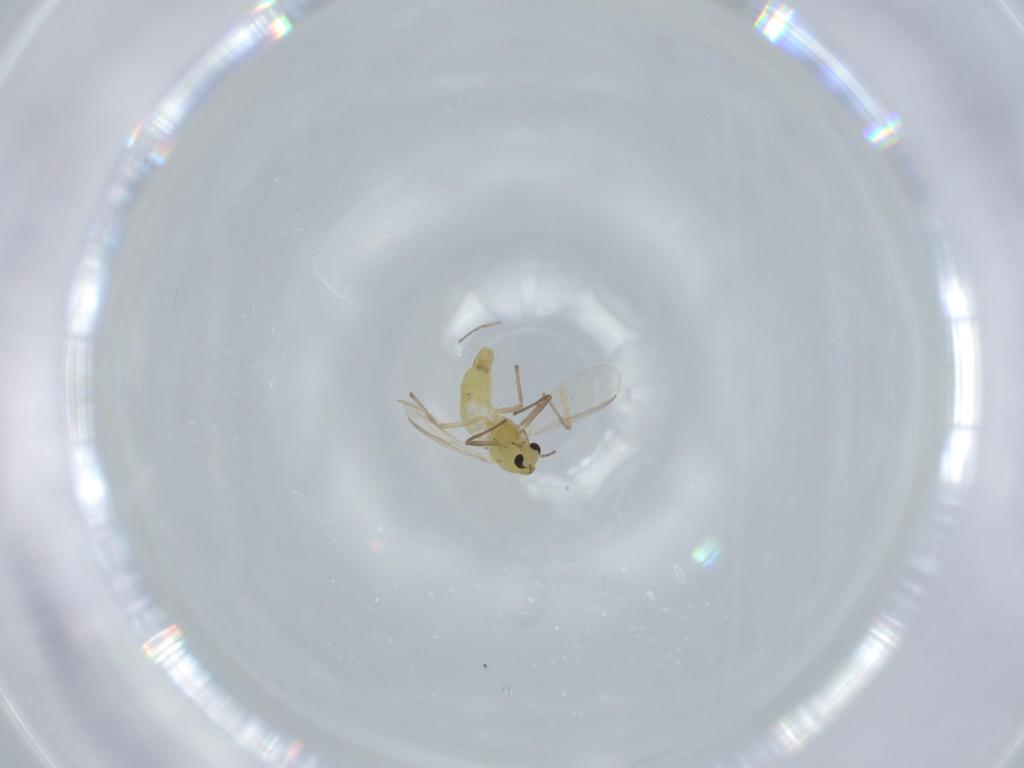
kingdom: Animalia
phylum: Arthropoda
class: Insecta
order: Diptera
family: Chironomidae
